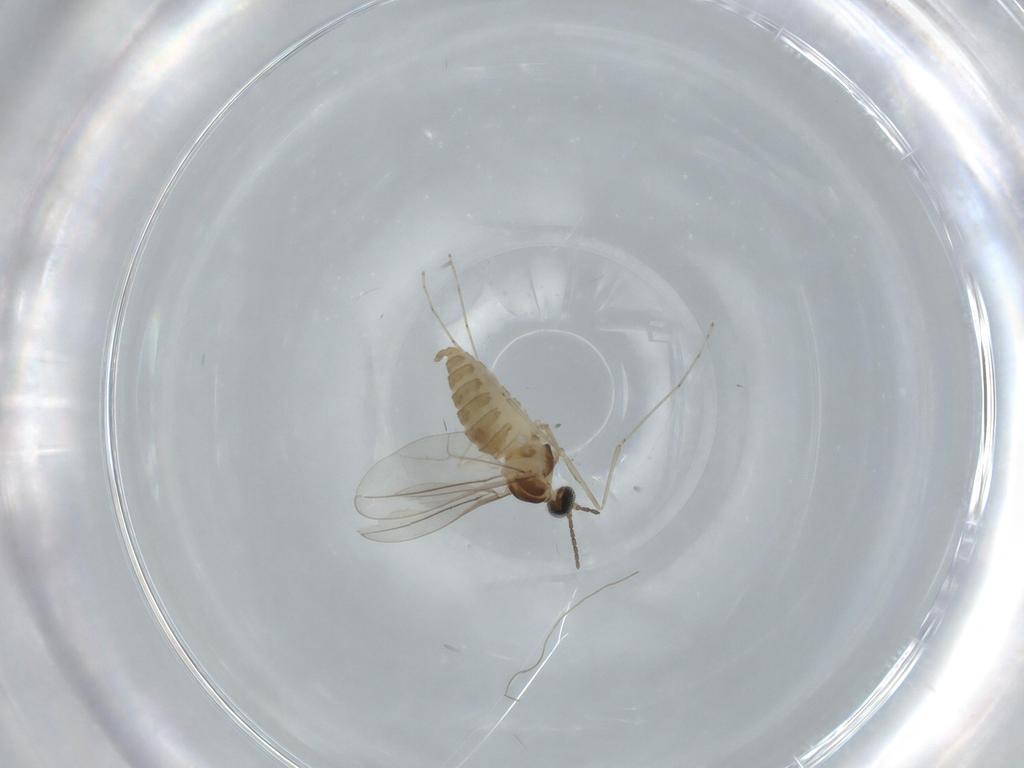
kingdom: Animalia
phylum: Arthropoda
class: Insecta
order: Diptera
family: Cecidomyiidae
